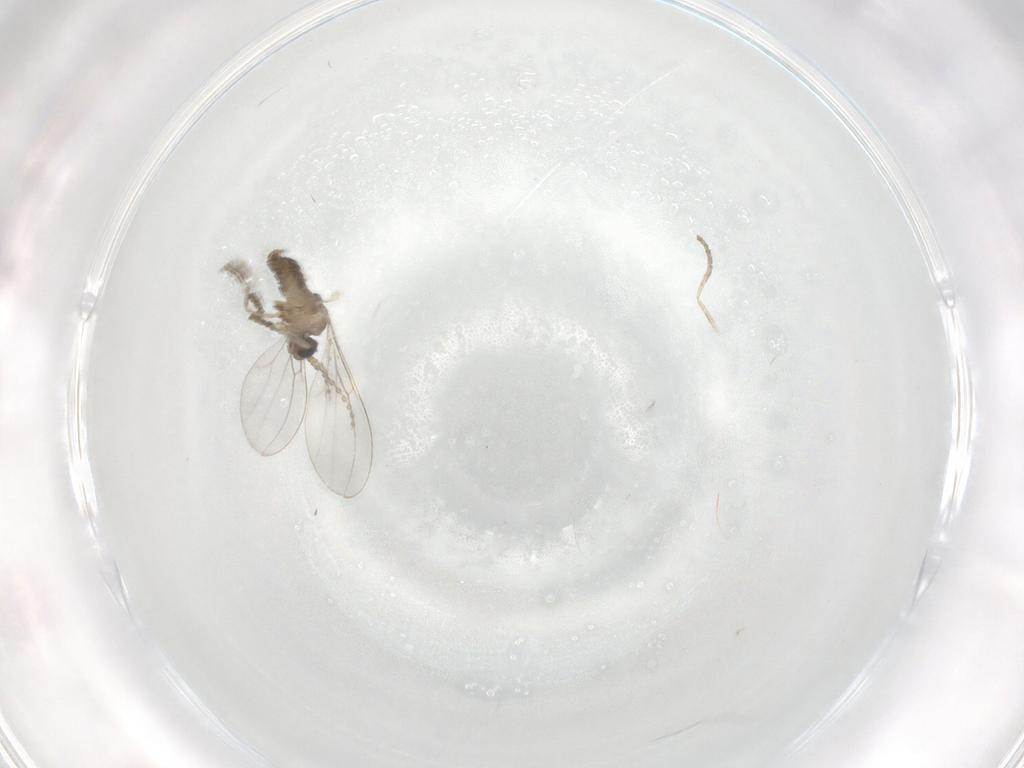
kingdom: Animalia
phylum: Arthropoda
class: Insecta
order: Diptera
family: Cecidomyiidae
